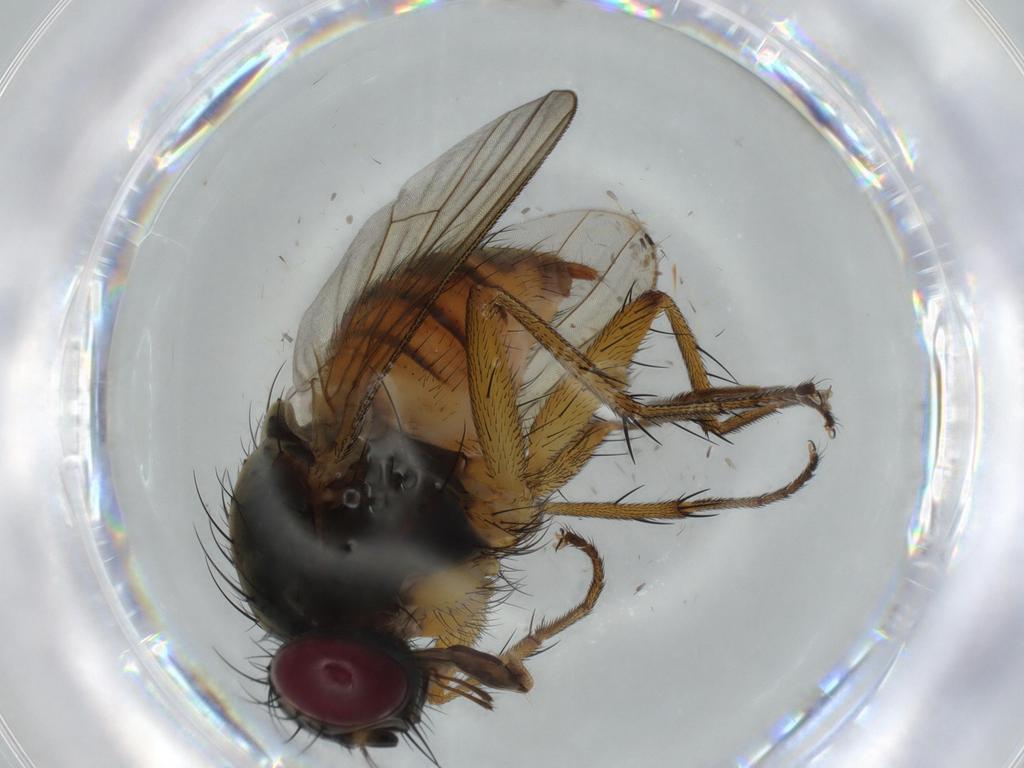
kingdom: Animalia
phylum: Arthropoda
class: Insecta
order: Diptera
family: Muscidae
